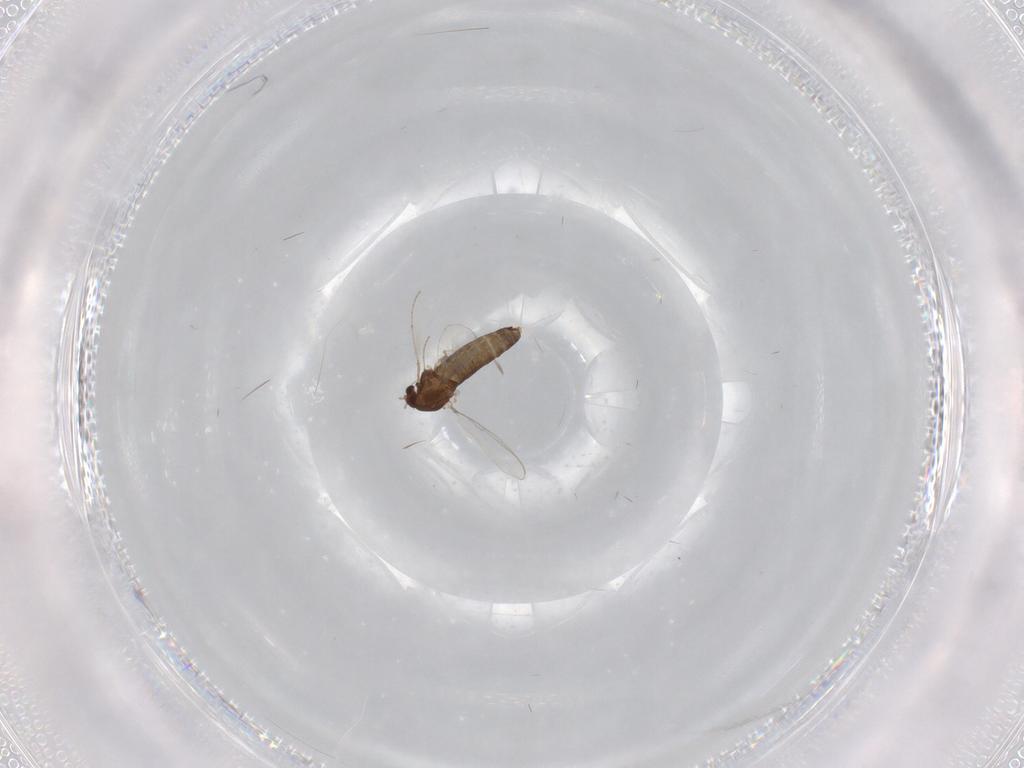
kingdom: Animalia
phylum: Arthropoda
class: Insecta
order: Diptera
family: Chironomidae
